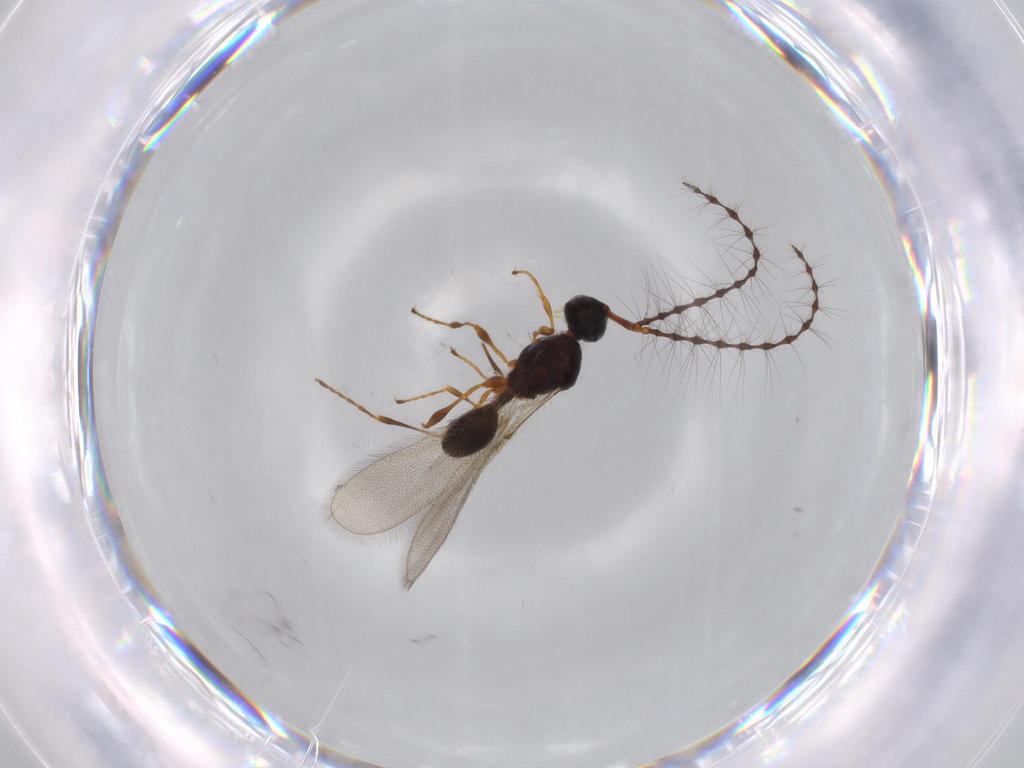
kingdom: Animalia
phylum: Arthropoda
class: Insecta
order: Hymenoptera
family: Diapriidae
